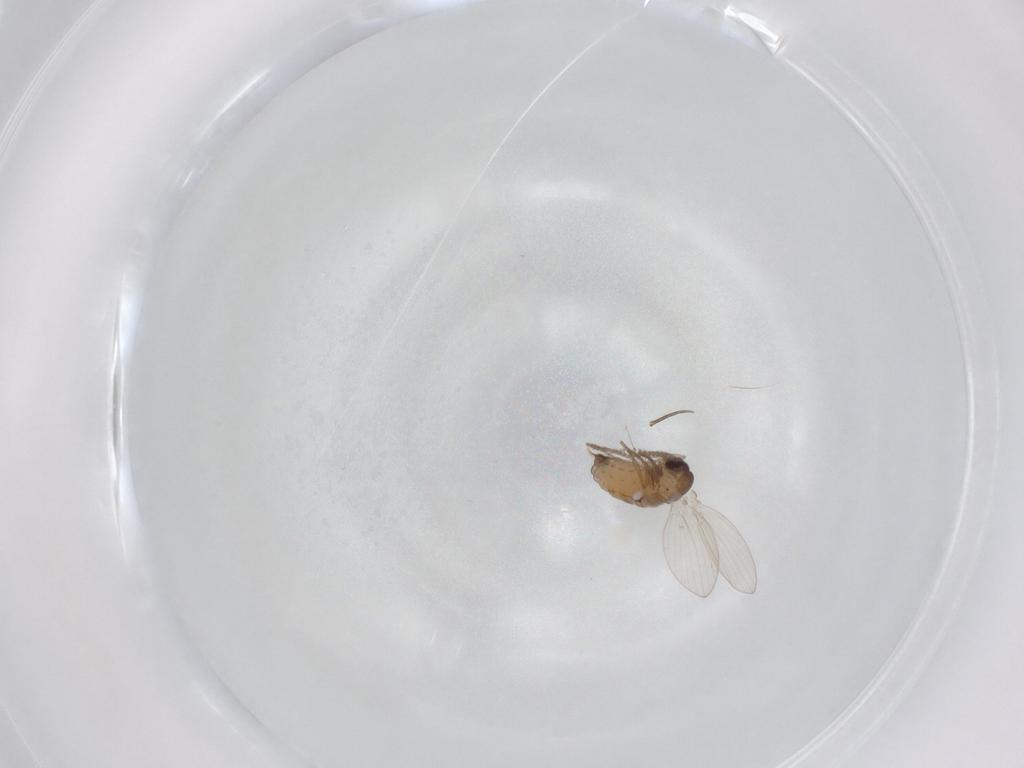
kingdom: Animalia
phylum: Arthropoda
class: Insecta
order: Diptera
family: Psychodidae
